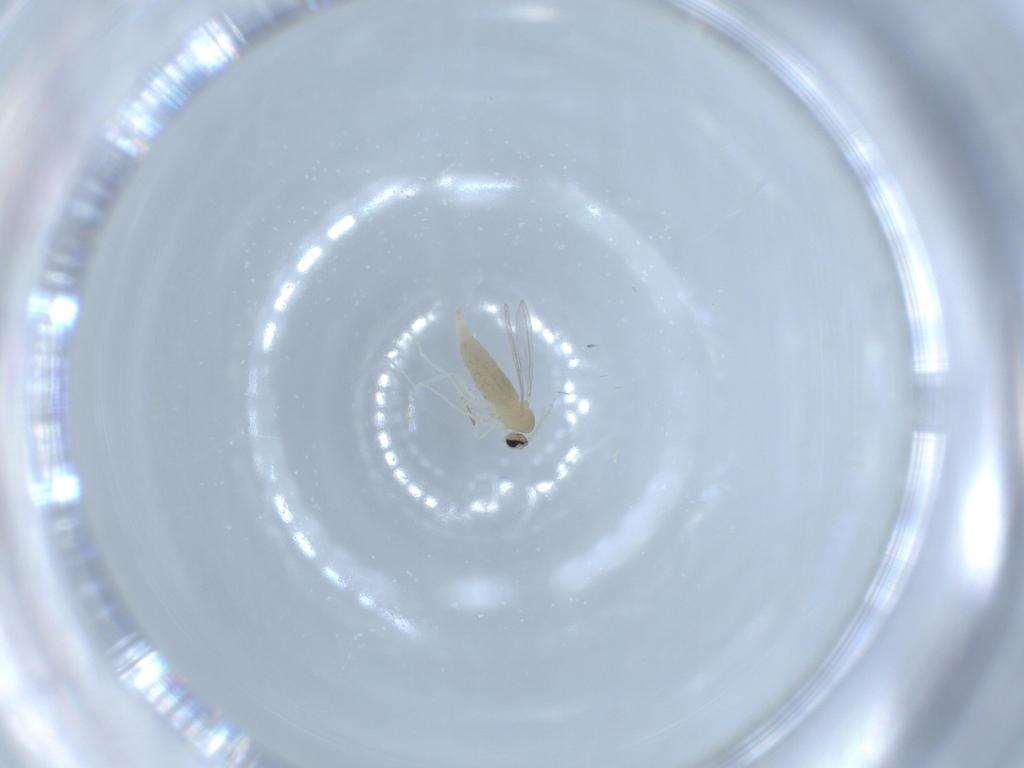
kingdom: Animalia
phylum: Arthropoda
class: Insecta
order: Diptera
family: Cecidomyiidae
